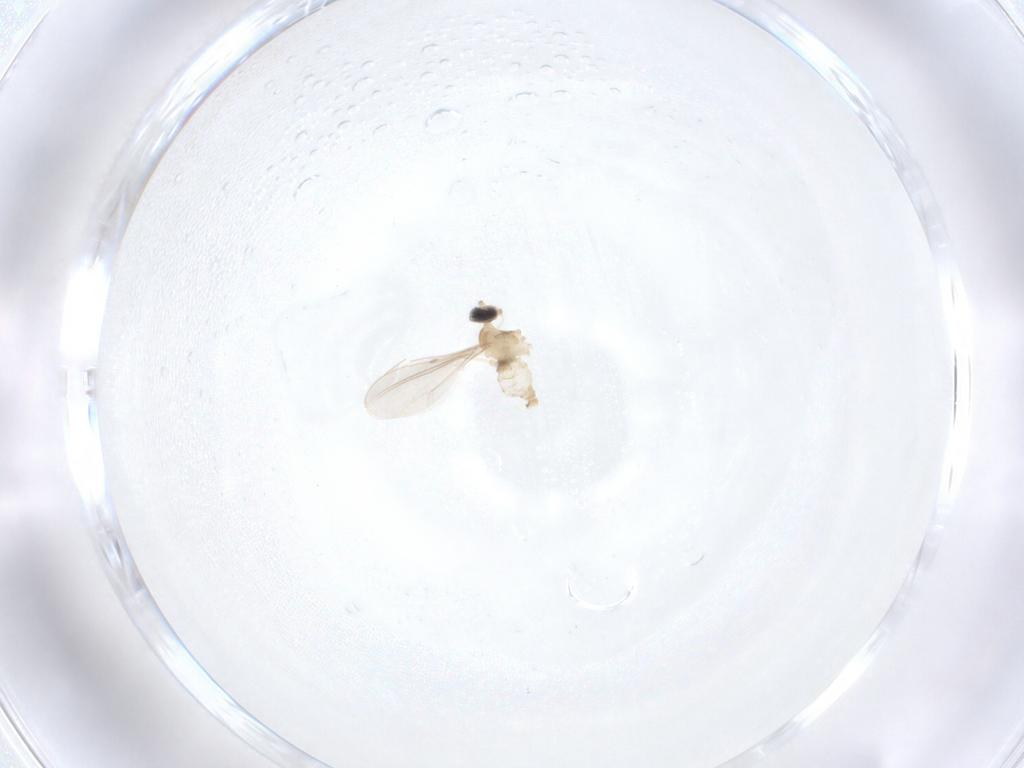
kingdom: Animalia
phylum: Arthropoda
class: Insecta
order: Diptera
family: Cecidomyiidae
